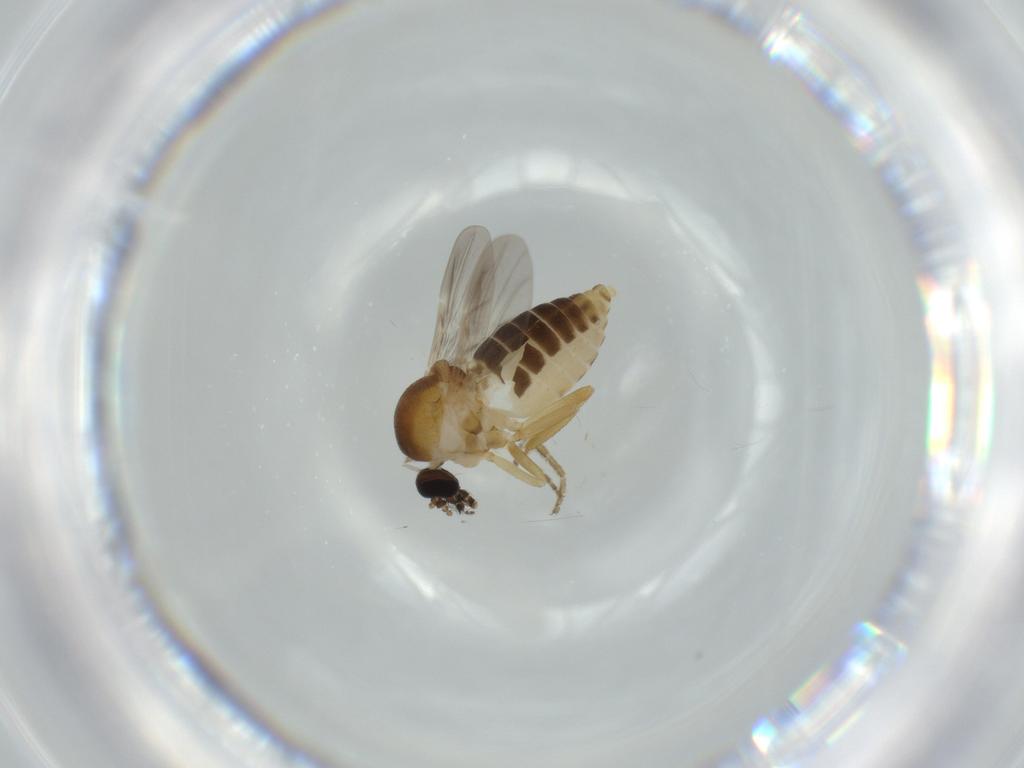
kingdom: Animalia
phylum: Arthropoda
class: Insecta
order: Diptera
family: Ceratopogonidae
